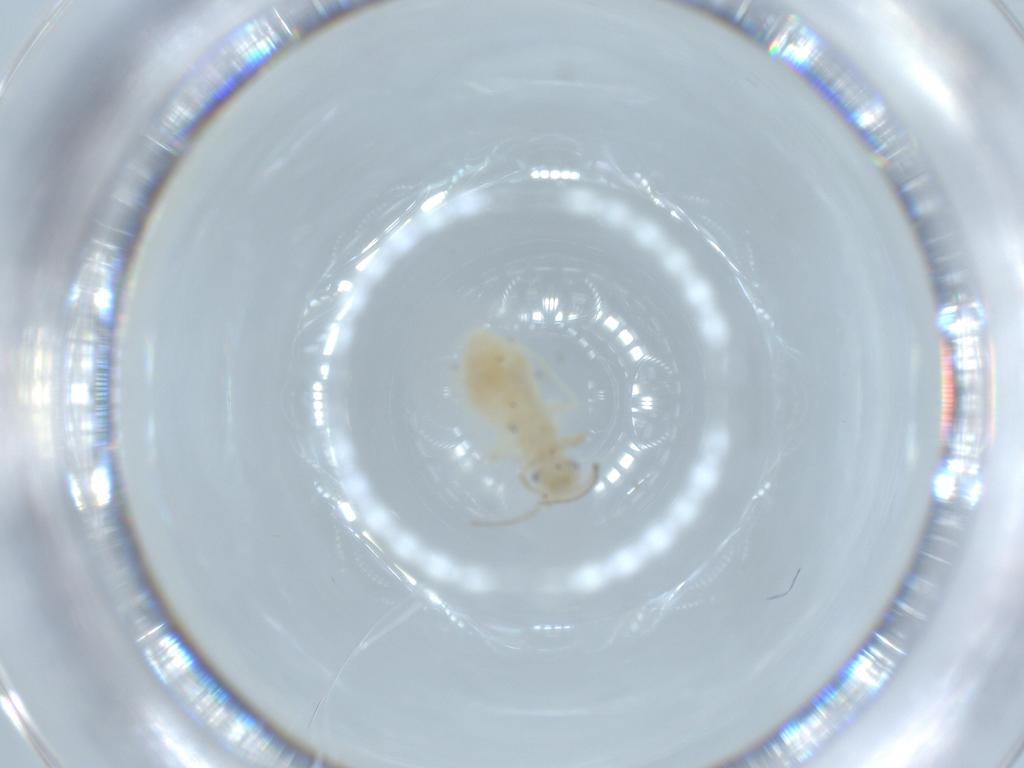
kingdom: Animalia
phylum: Arthropoda
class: Insecta
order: Psocodea
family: Caeciliusidae
